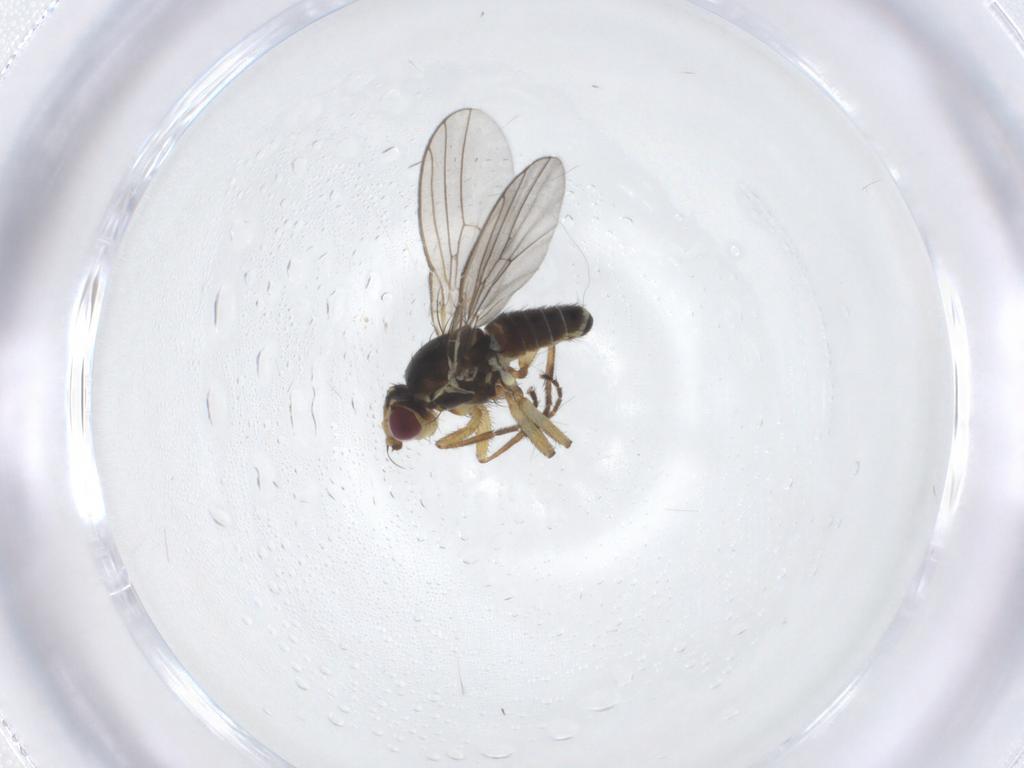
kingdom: Animalia
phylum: Arthropoda
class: Insecta
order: Diptera
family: Agromyzidae
